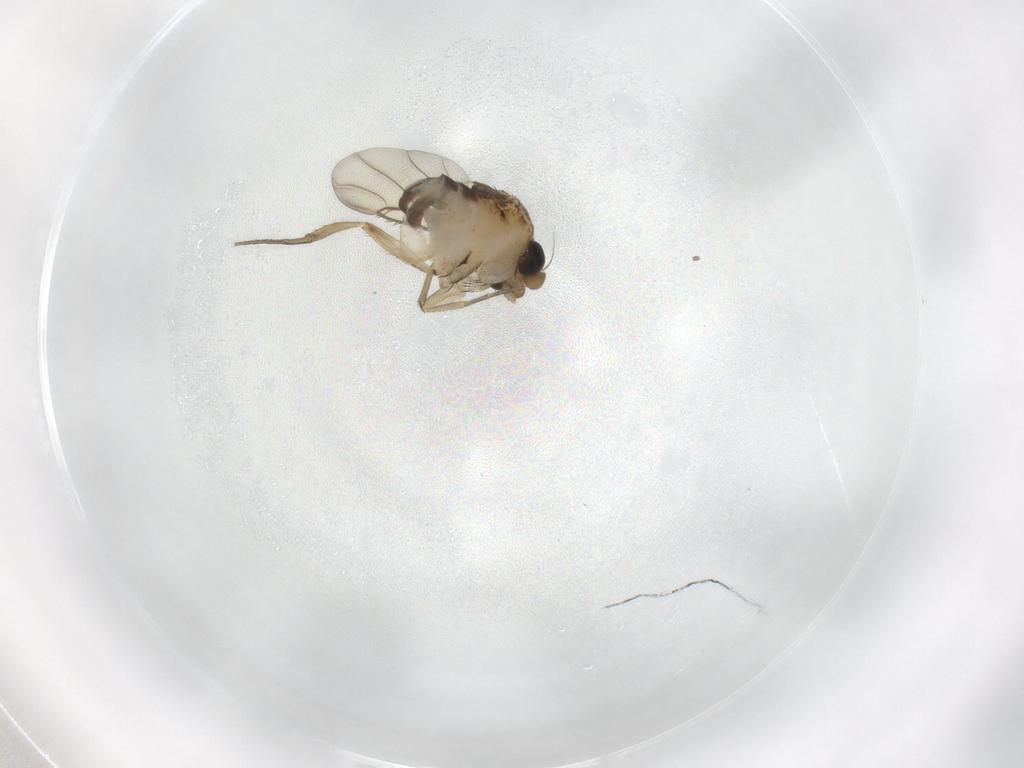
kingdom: Animalia
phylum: Arthropoda
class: Insecta
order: Diptera
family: Phoridae
